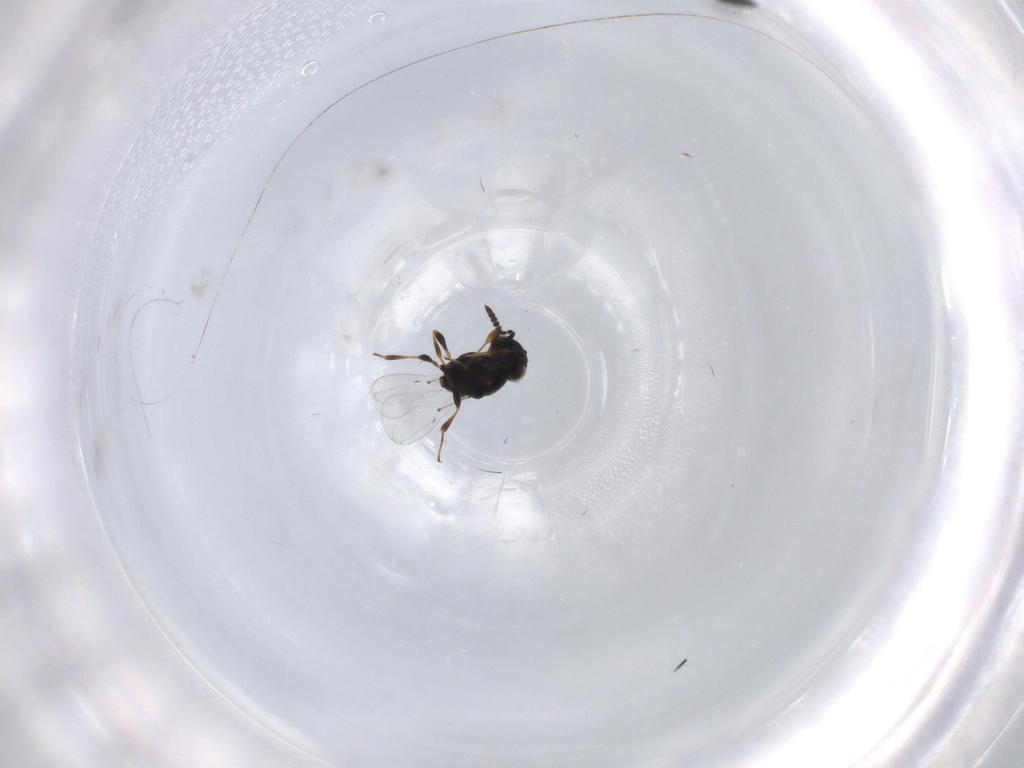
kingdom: Animalia
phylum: Arthropoda
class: Insecta
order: Hymenoptera
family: Platygastridae
